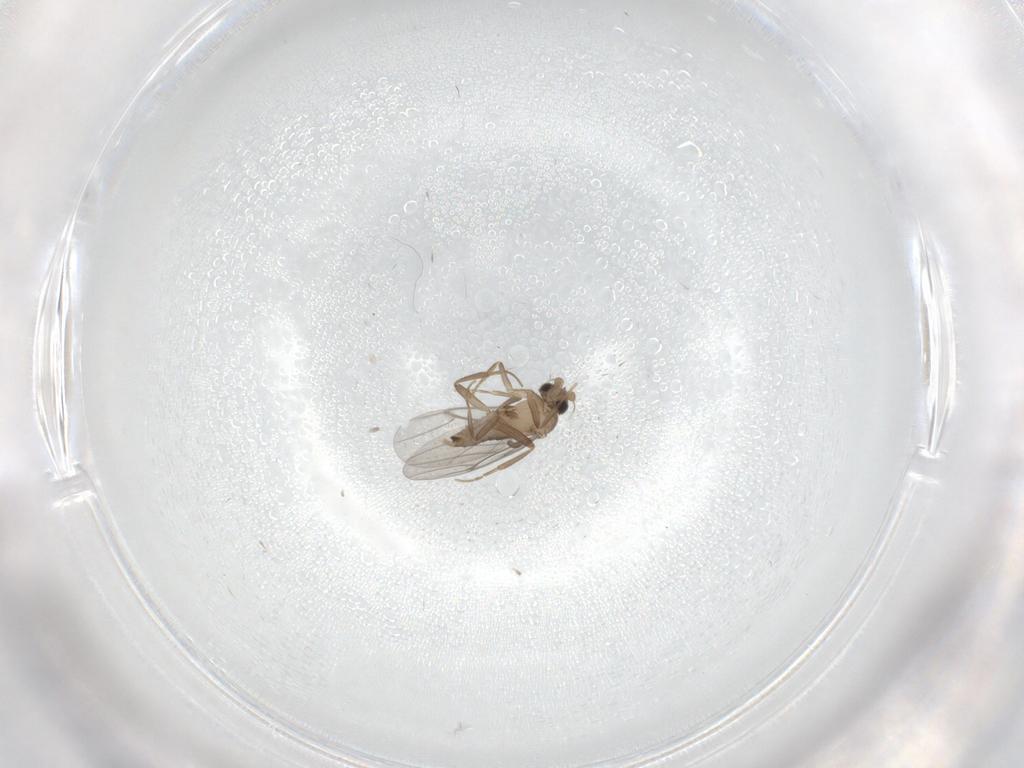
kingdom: Animalia
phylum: Arthropoda
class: Insecta
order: Diptera
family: Cecidomyiidae
